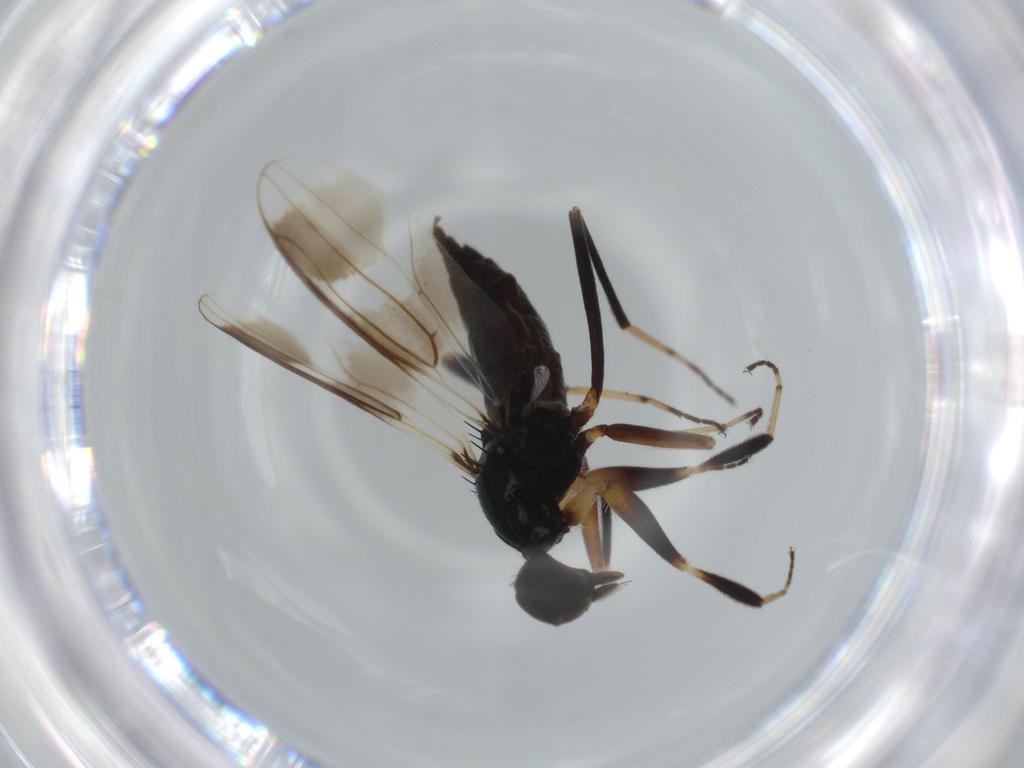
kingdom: Animalia
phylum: Arthropoda
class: Insecta
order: Diptera
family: Hybotidae
